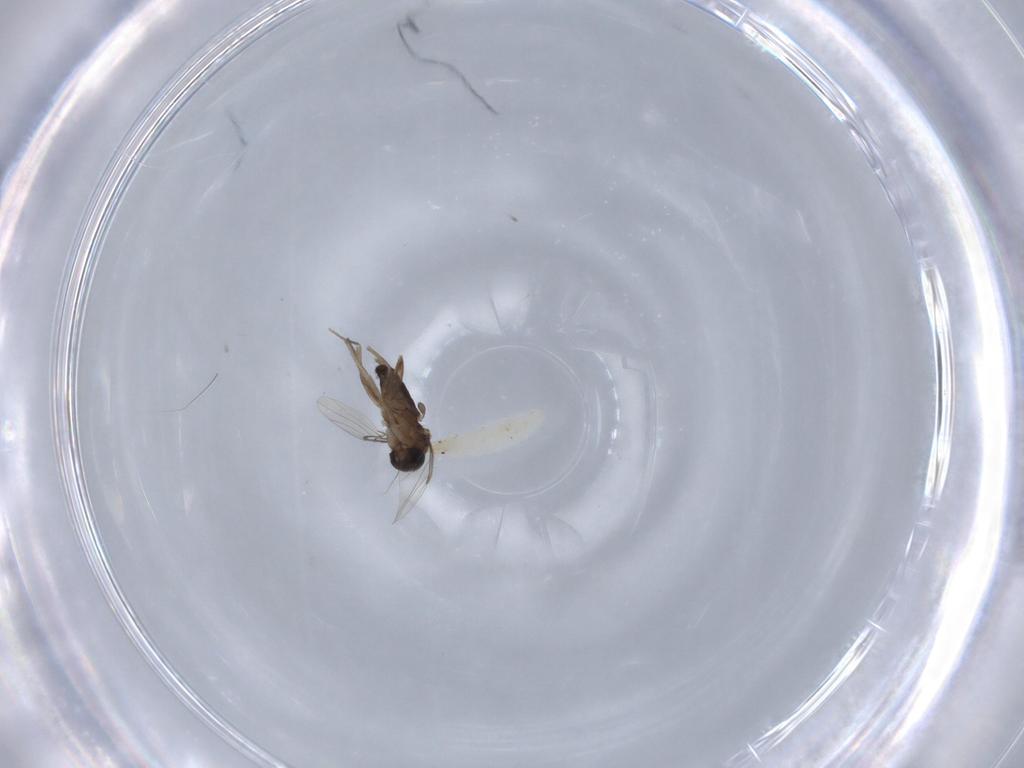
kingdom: Animalia
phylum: Arthropoda
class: Insecta
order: Diptera
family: Phoridae
